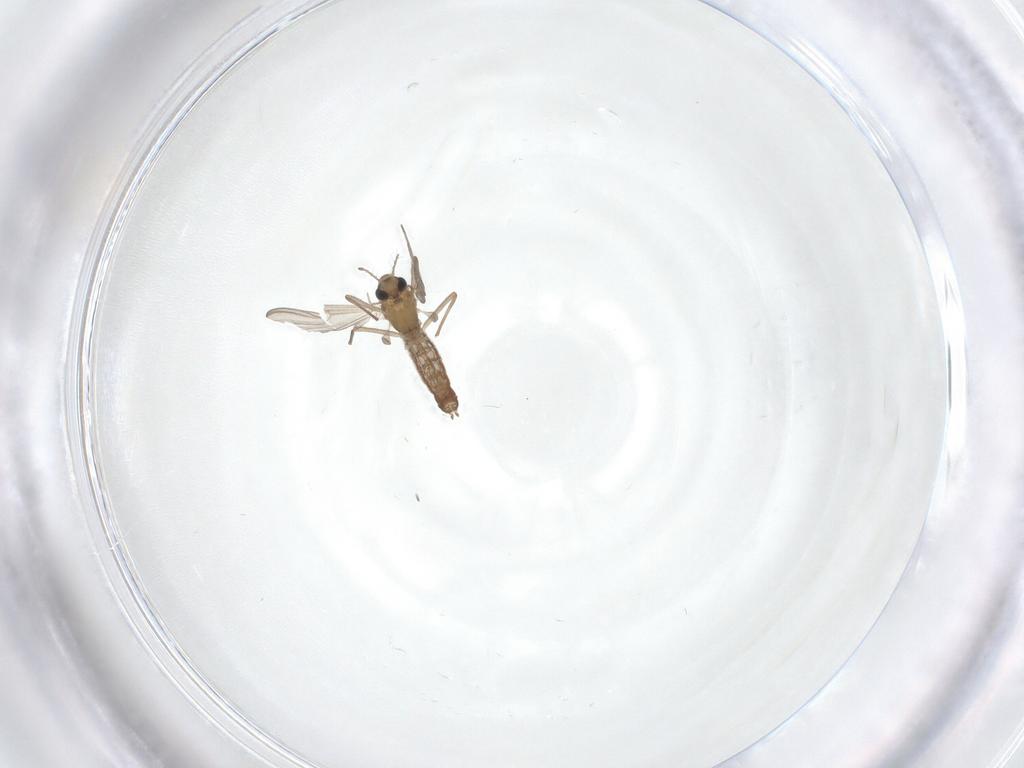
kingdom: Animalia
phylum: Arthropoda
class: Insecta
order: Diptera
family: Chironomidae
